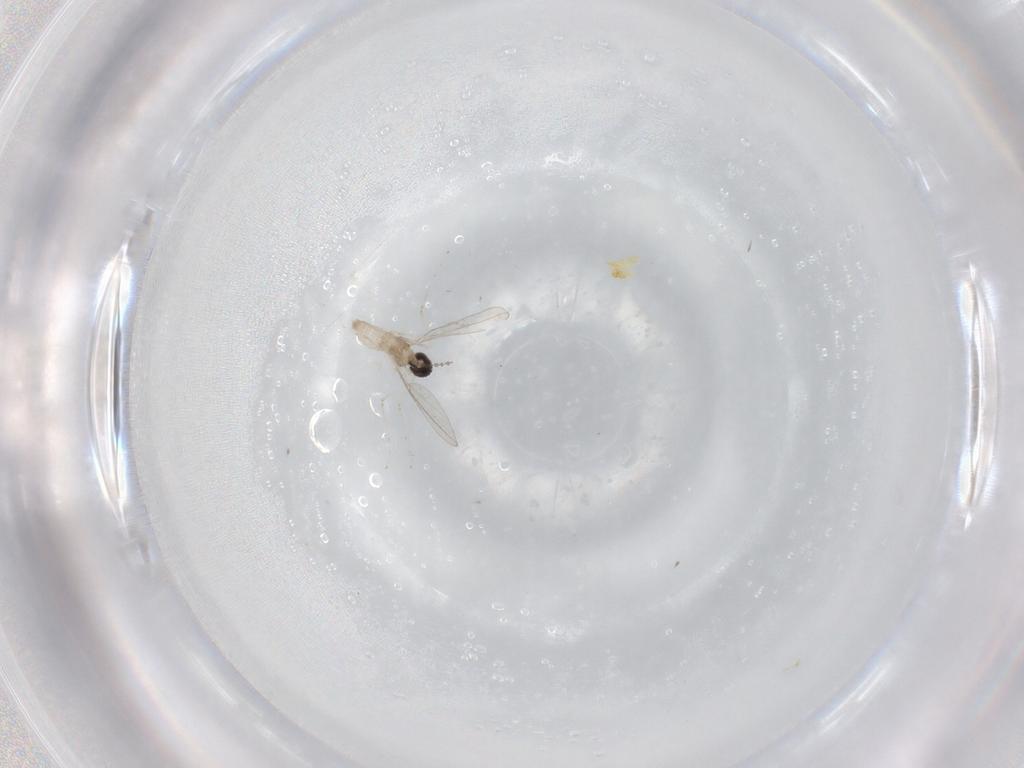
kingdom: Animalia
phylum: Arthropoda
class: Insecta
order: Diptera
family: Cecidomyiidae
